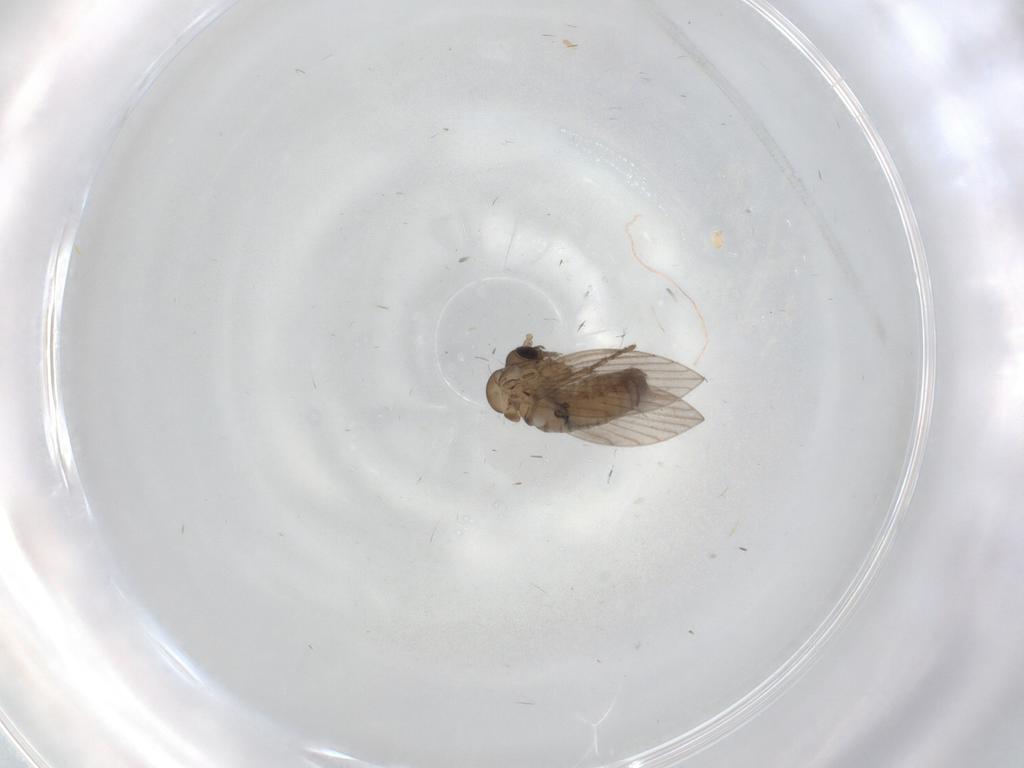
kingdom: Animalia
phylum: Arthropoda
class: Insecta
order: Diptera
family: Cecidomyiidae
